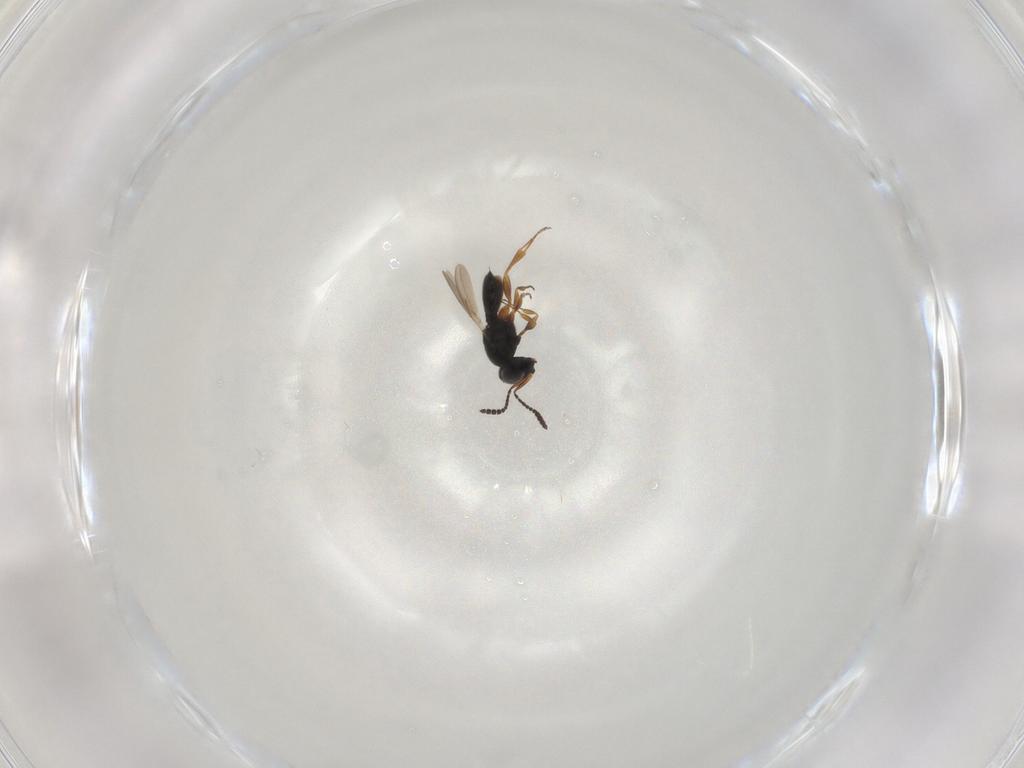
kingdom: Animalia
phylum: Arthropoda
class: Insecta
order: Hymenoptera
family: Scelionidae
